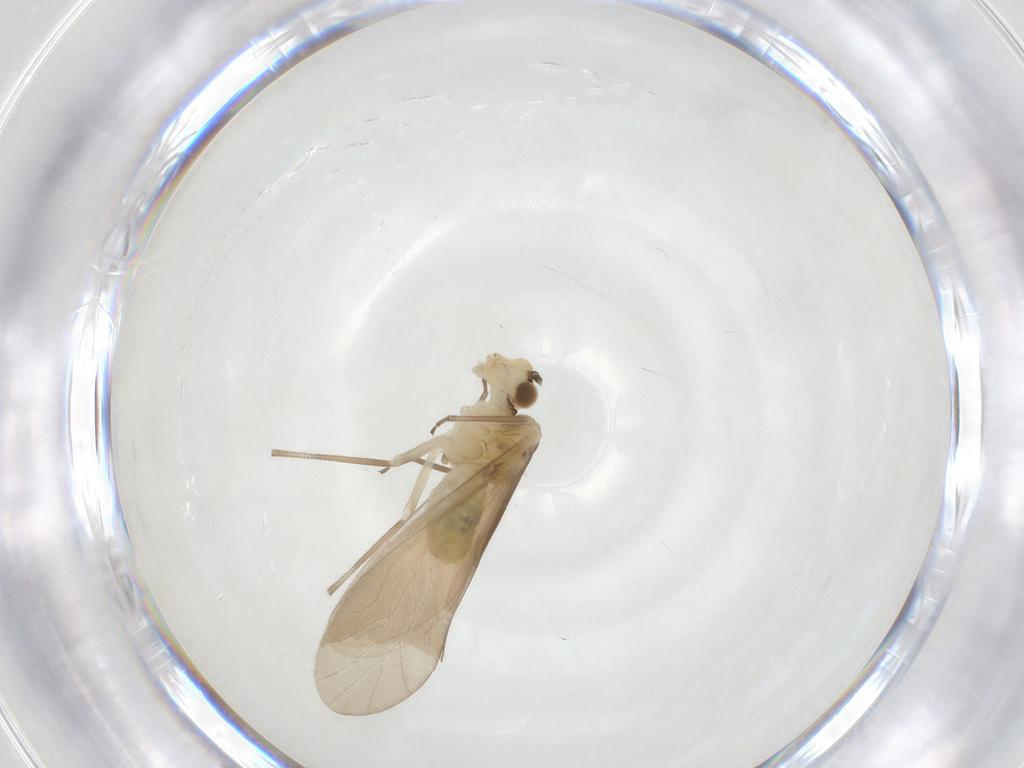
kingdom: Animalia
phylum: Arthropoda
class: Insecta
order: Psocodea
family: Caeciliusidae
